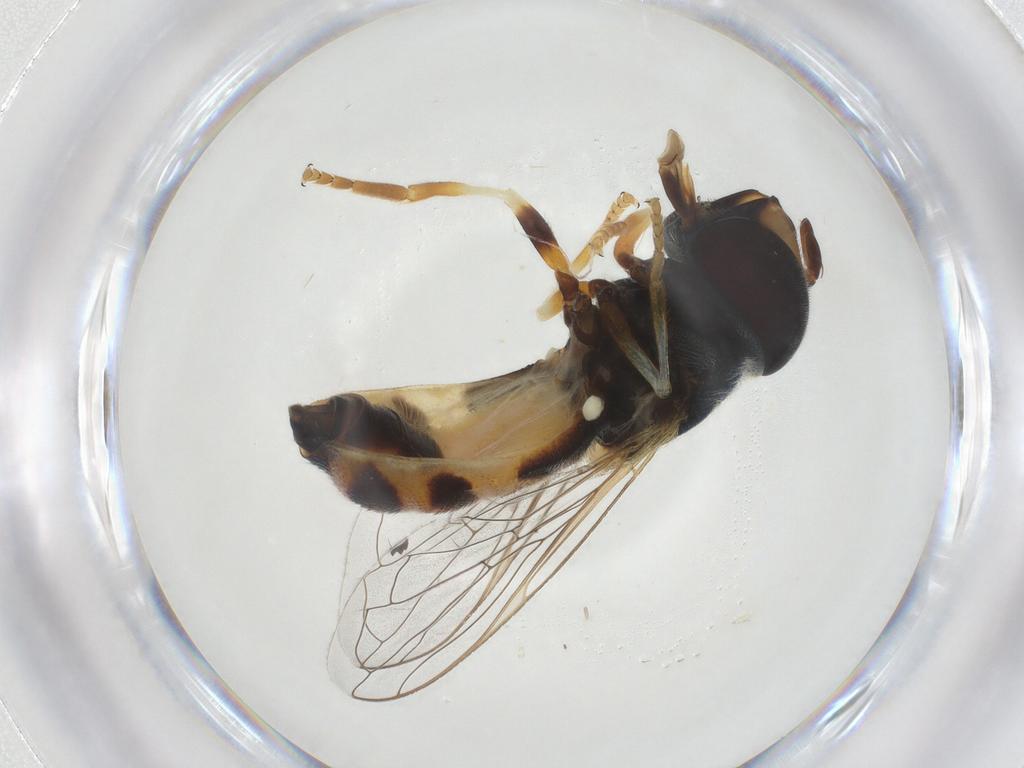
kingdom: Animalia
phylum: Arthropoda
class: Insecta
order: Diptera
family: Syrphidae
